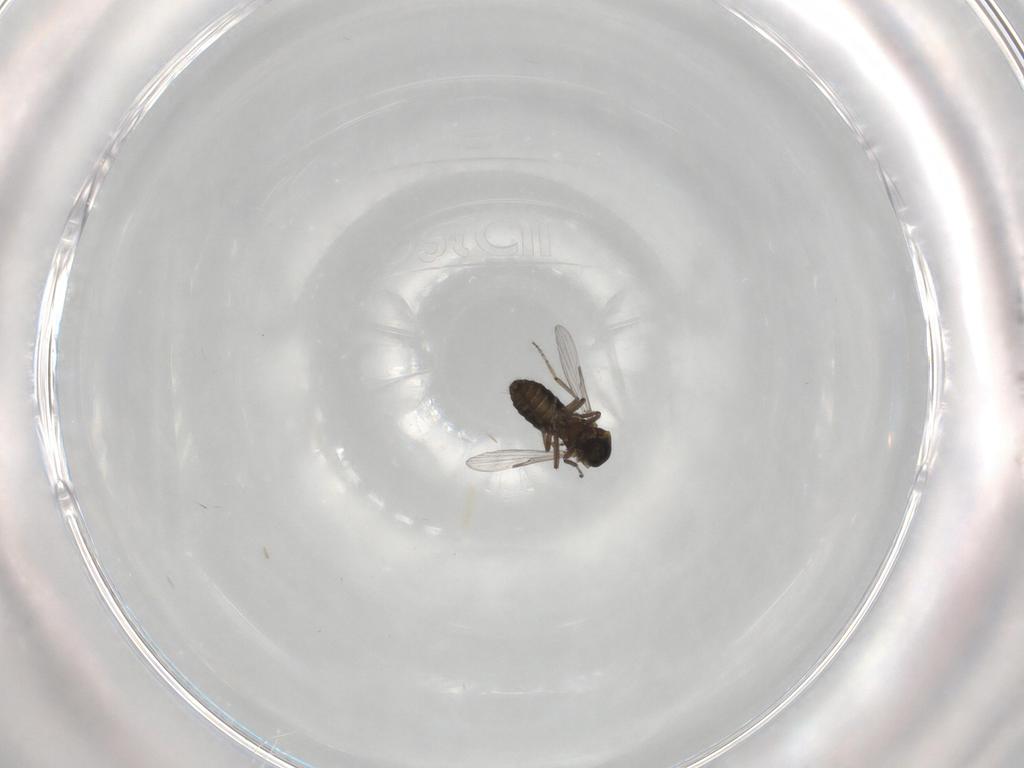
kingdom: Animalia
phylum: Arthropoda
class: Insecta
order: Diptera
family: Ceratopogonidae
